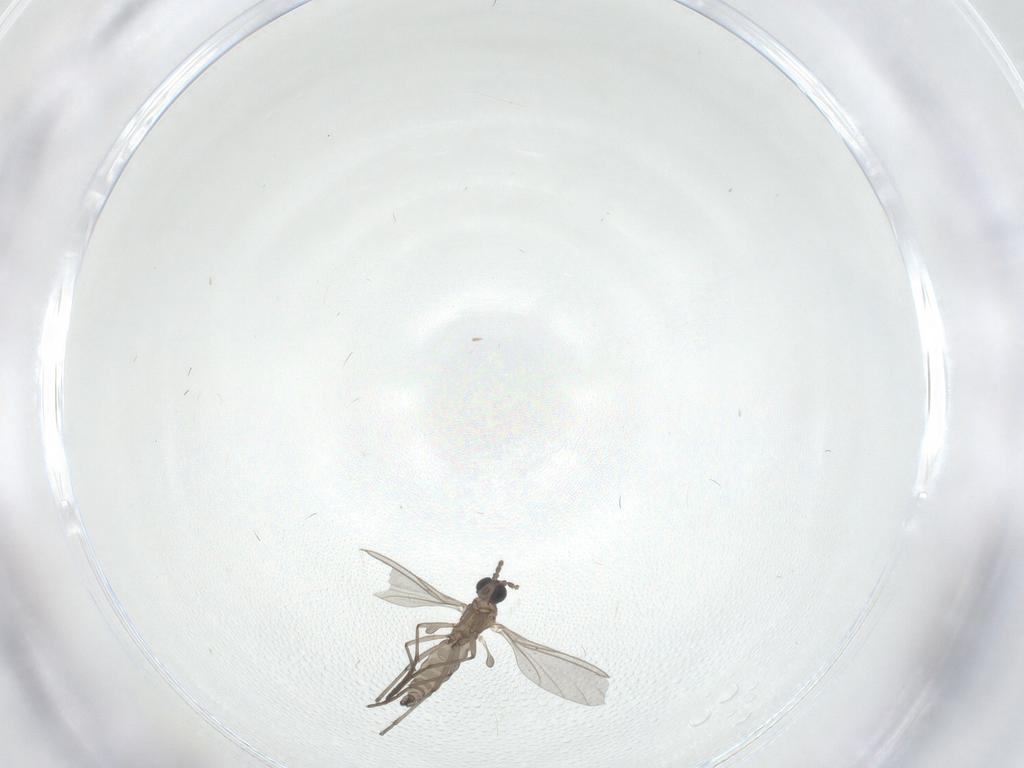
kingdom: Animalia
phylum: Arthropoda
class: Insecta
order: Diptera
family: Sciaridae
